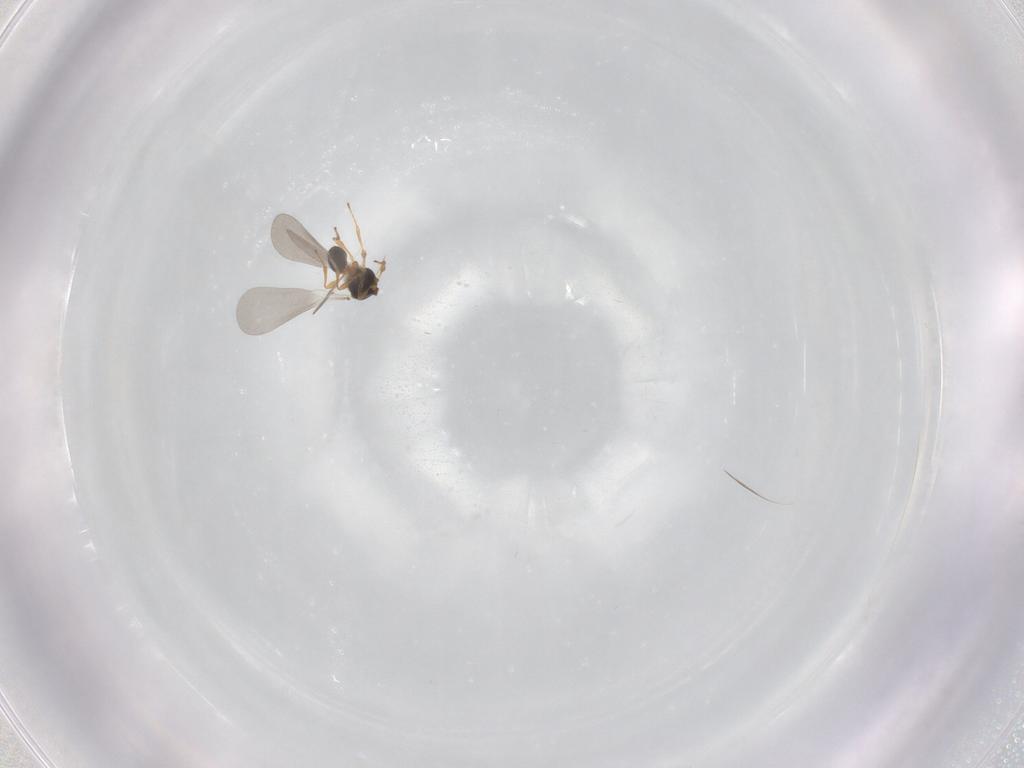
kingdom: Animalia
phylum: Arthropoda
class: Insecta
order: Hymenoptera
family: Platygastridae
